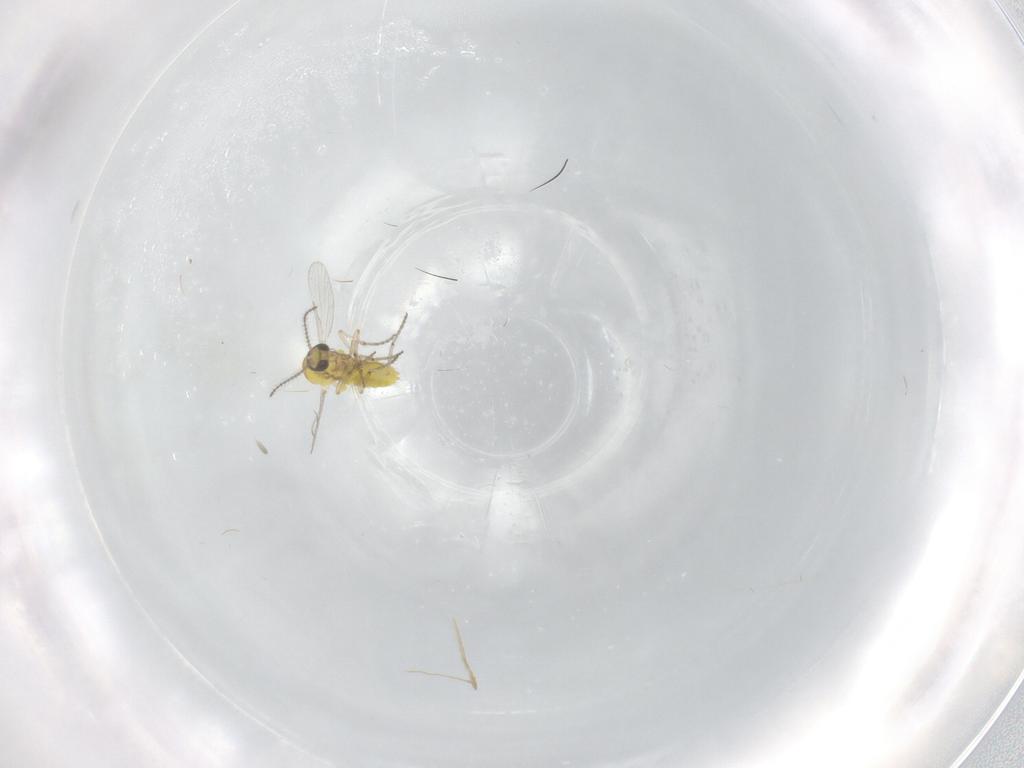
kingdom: Animalia
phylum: Arthropoda
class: Insecta
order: Diptera
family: Ceratopogonidae
